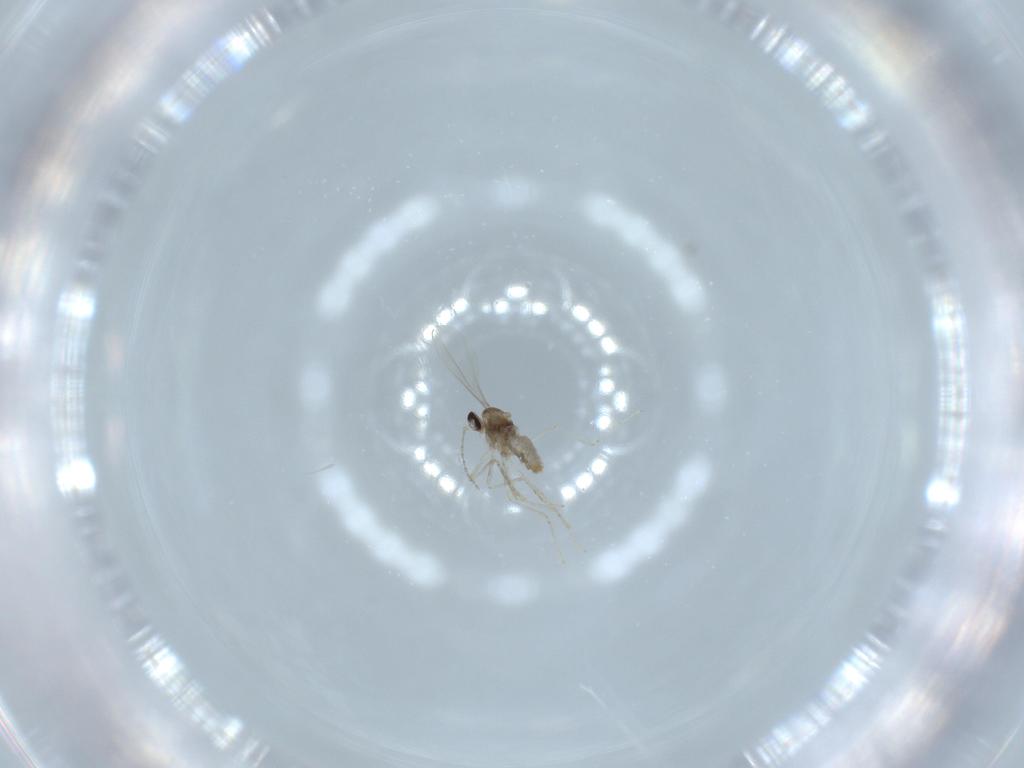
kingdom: Animalia
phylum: Arthropoda
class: Insecta
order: Diptera
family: Cecidomyiidae
